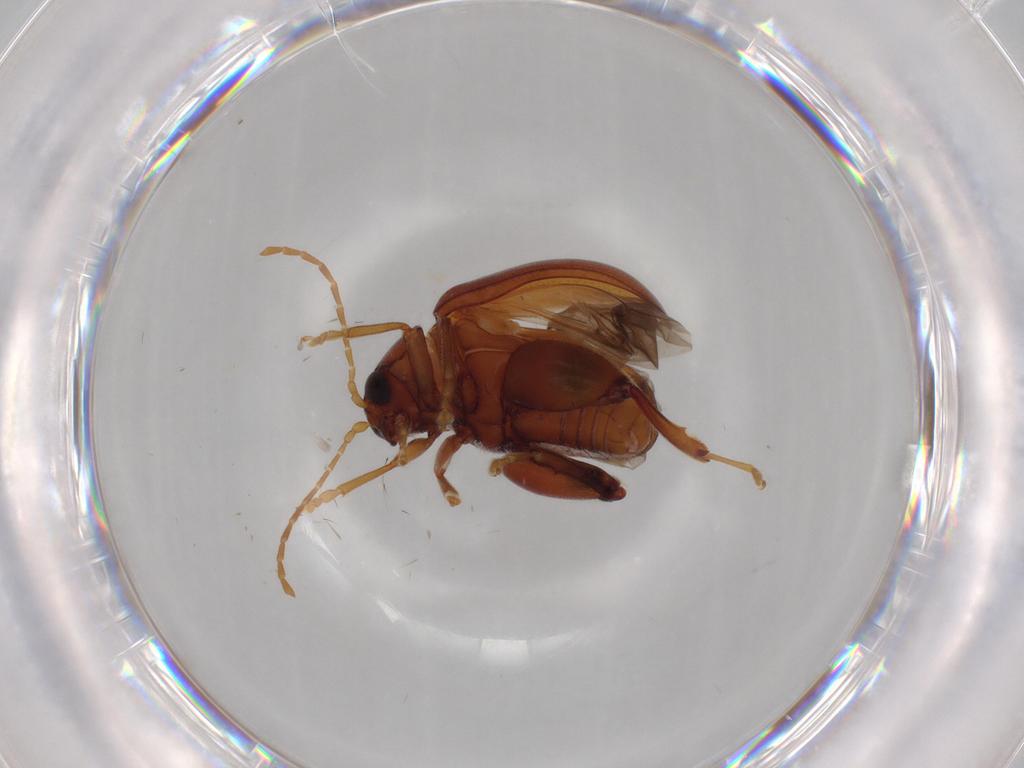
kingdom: Animalia
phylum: Arthropoda
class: Insecta
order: Coleoptera
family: Chrysomelidae
